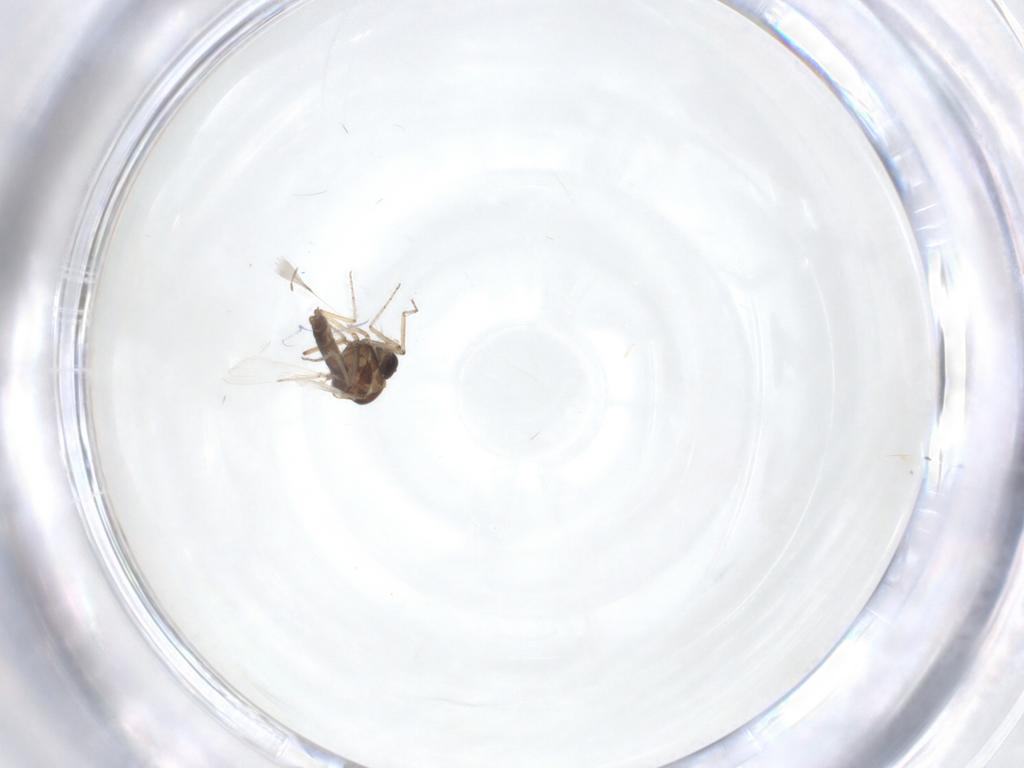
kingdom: Animalia
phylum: Arthropoda
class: Insecta
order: Diptera
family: Ceratopogonidae
